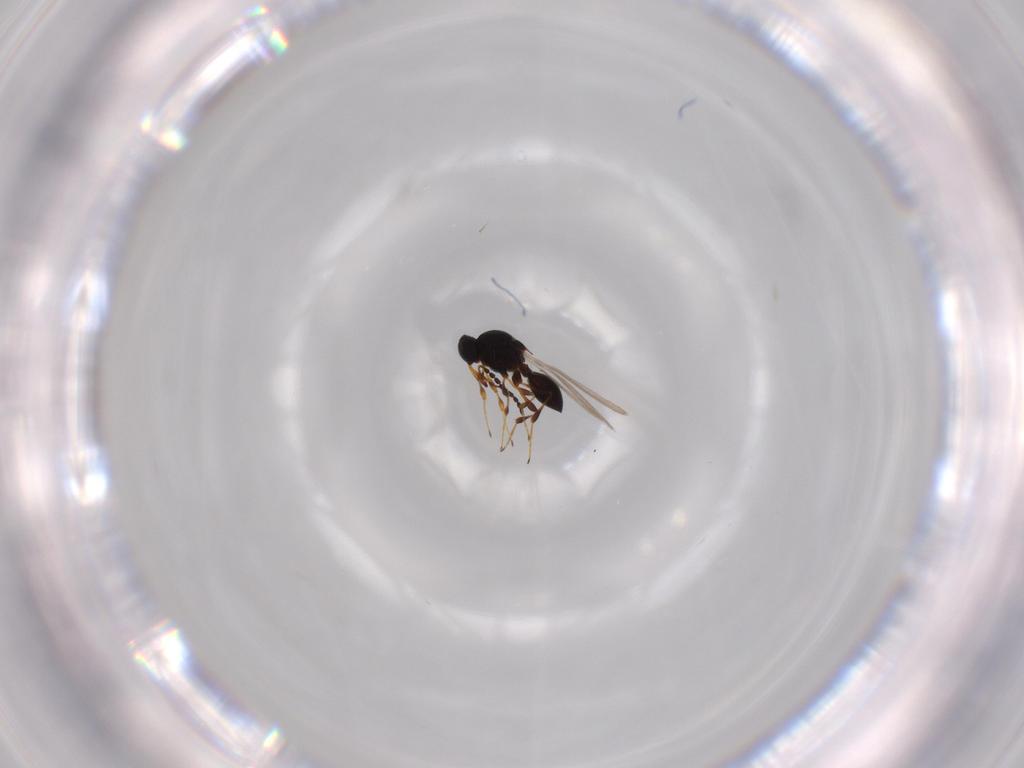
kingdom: Animalia
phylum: Arthropoda
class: Insecta
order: Hymenoptera
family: Platygastridae
